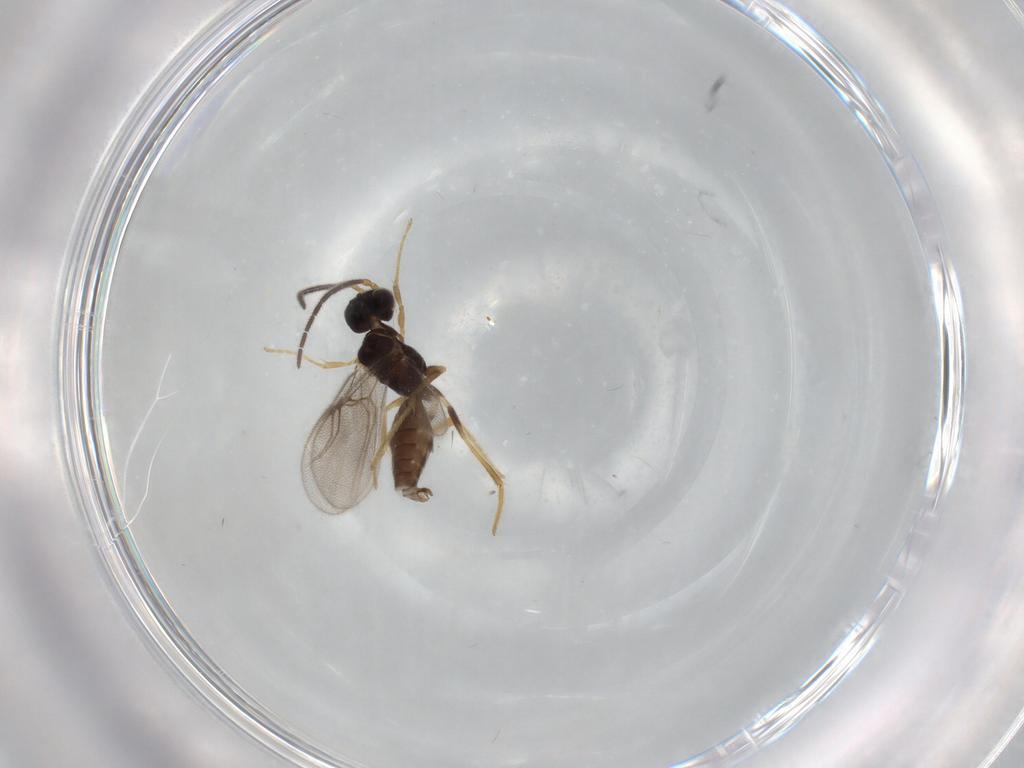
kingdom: Animalia
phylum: Arthropoda
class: Insecta
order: Hymenoptera
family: Dryinidae
